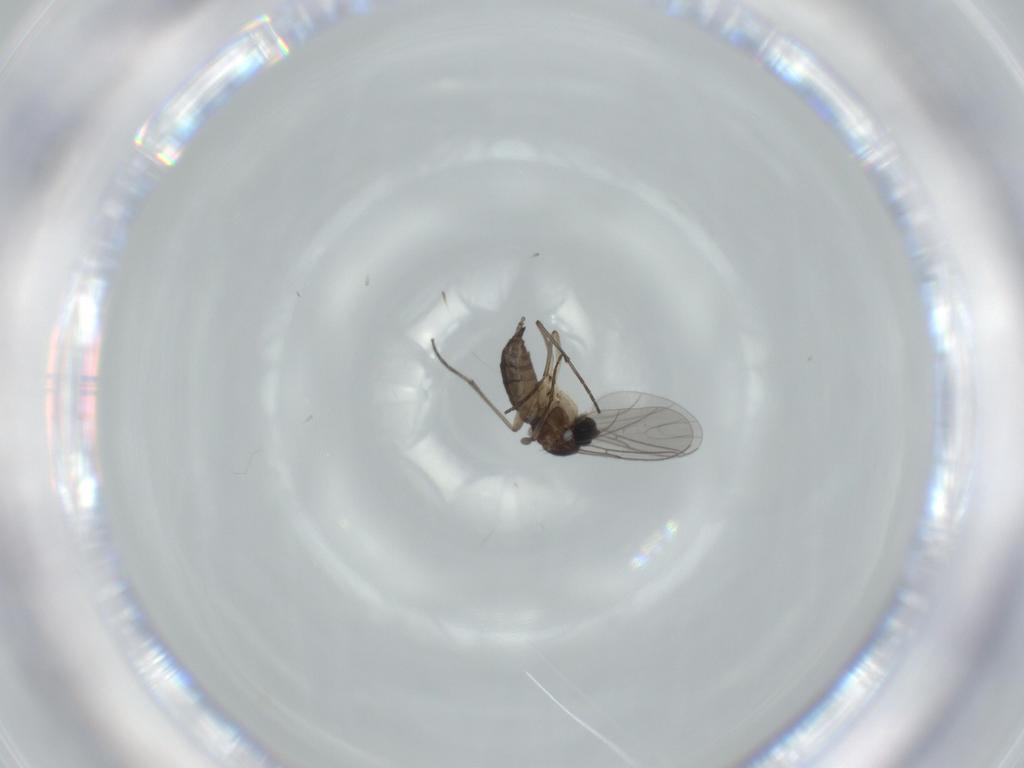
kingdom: Animalia
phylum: Arthropoda
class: Insecta
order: Diptera
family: Sciaridae
